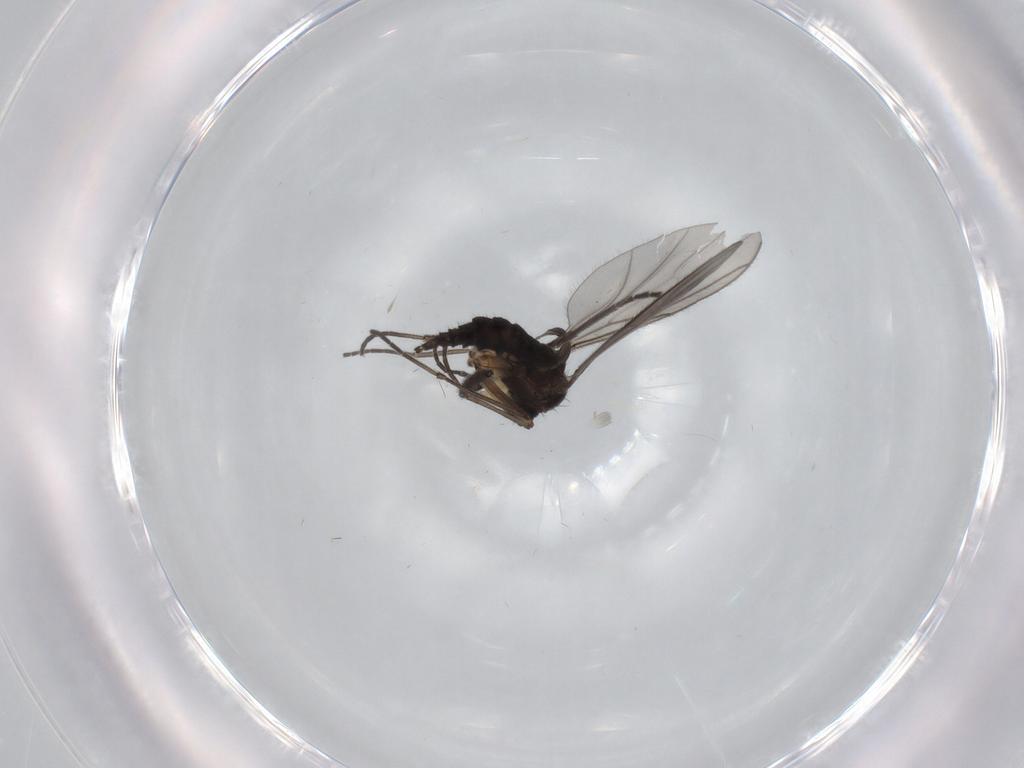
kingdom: Animalia
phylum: Arthropoda
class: Insecta
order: Diptera
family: Sciaridae
